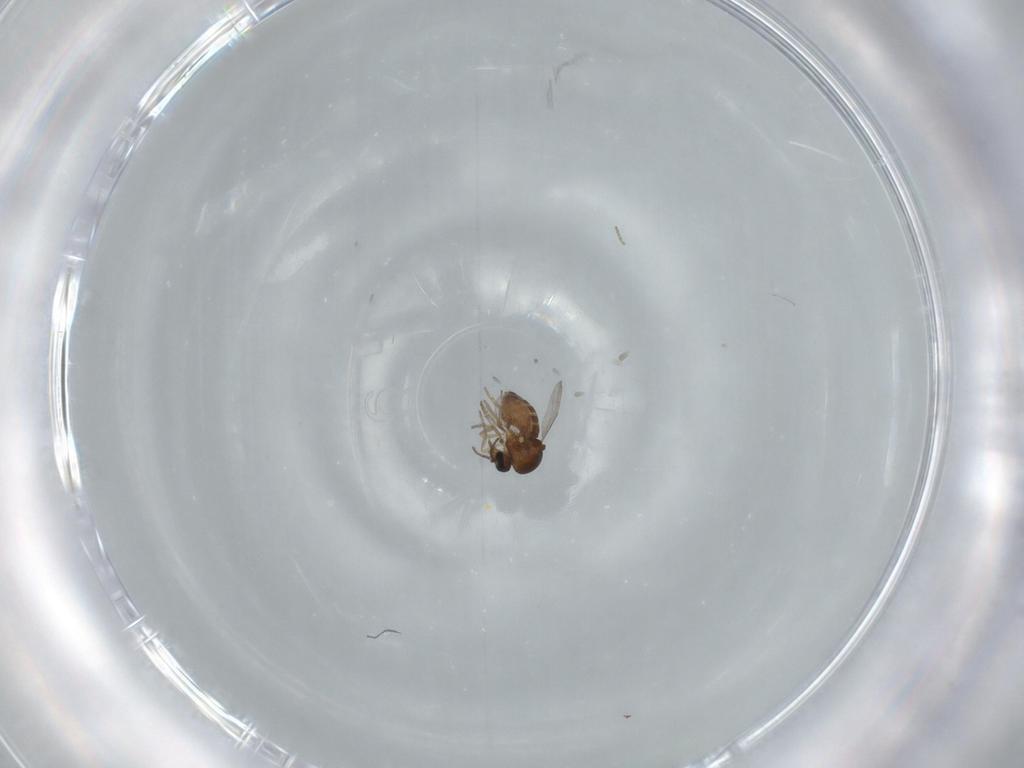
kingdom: Animalia
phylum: Arthropoda
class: Insecta
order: Diptera
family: Ceratopogonidae
